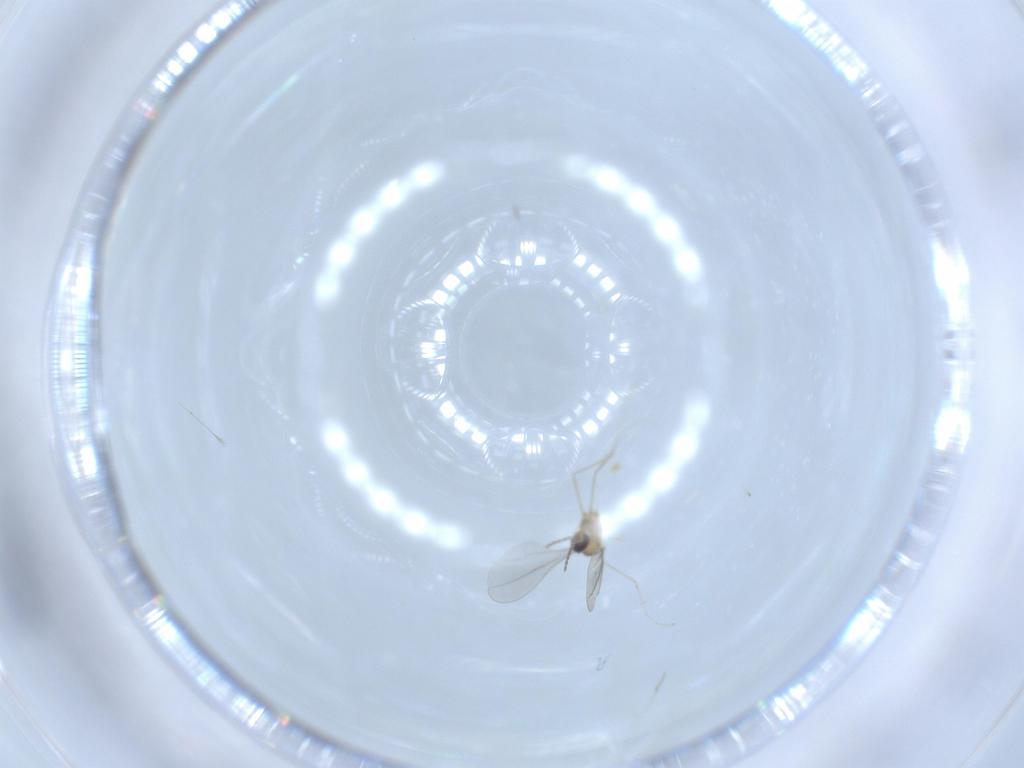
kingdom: Animalia
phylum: Arthropoda
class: Insecta
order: Diptera
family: Cecidomyiidae
